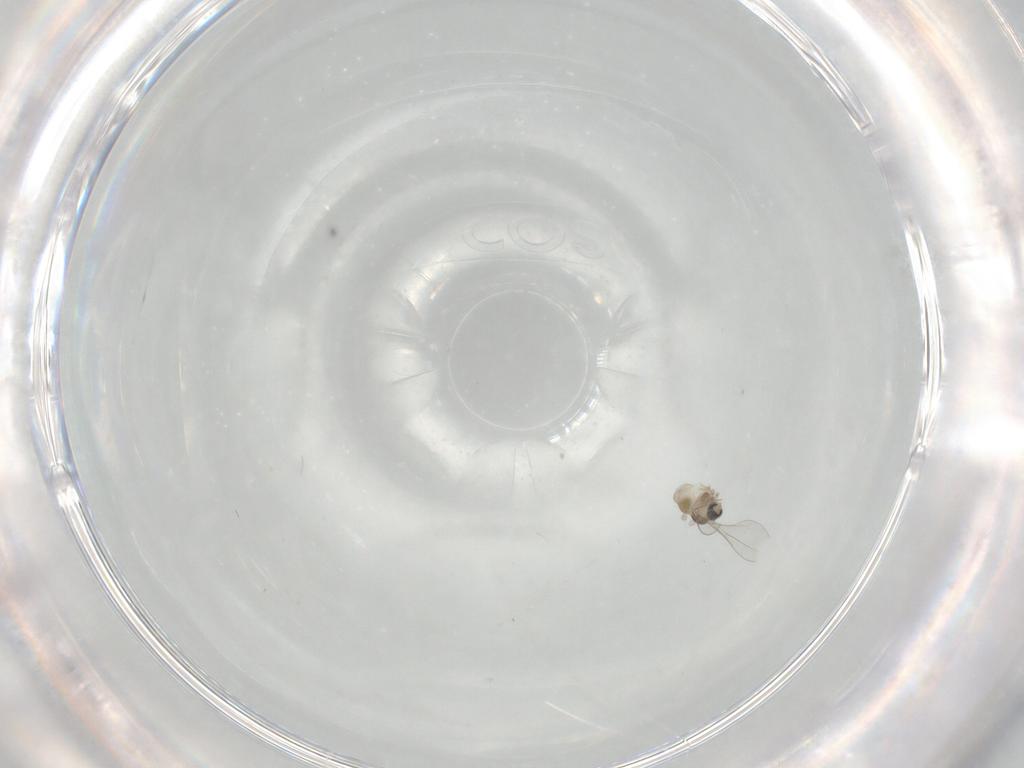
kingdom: Animalia
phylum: Arthropoda
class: Insecta
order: Diptera
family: Cecidomyiidae
